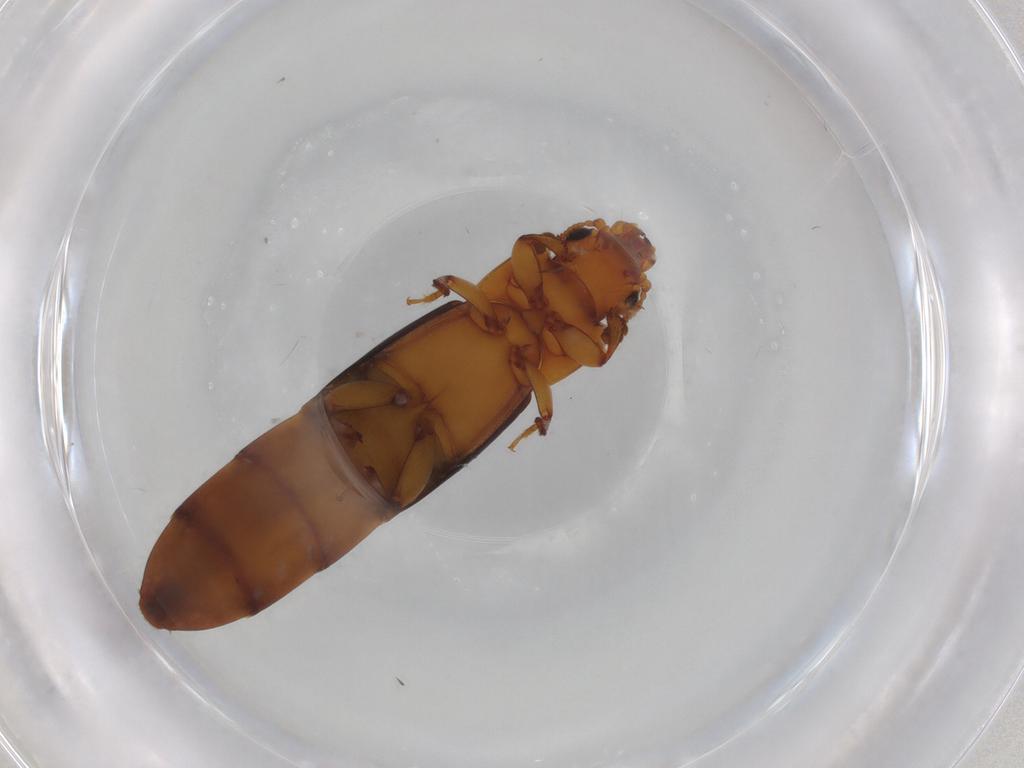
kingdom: Animalia
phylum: Arthropoda
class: Insecta
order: Coleoptera
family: Nitidulidae
